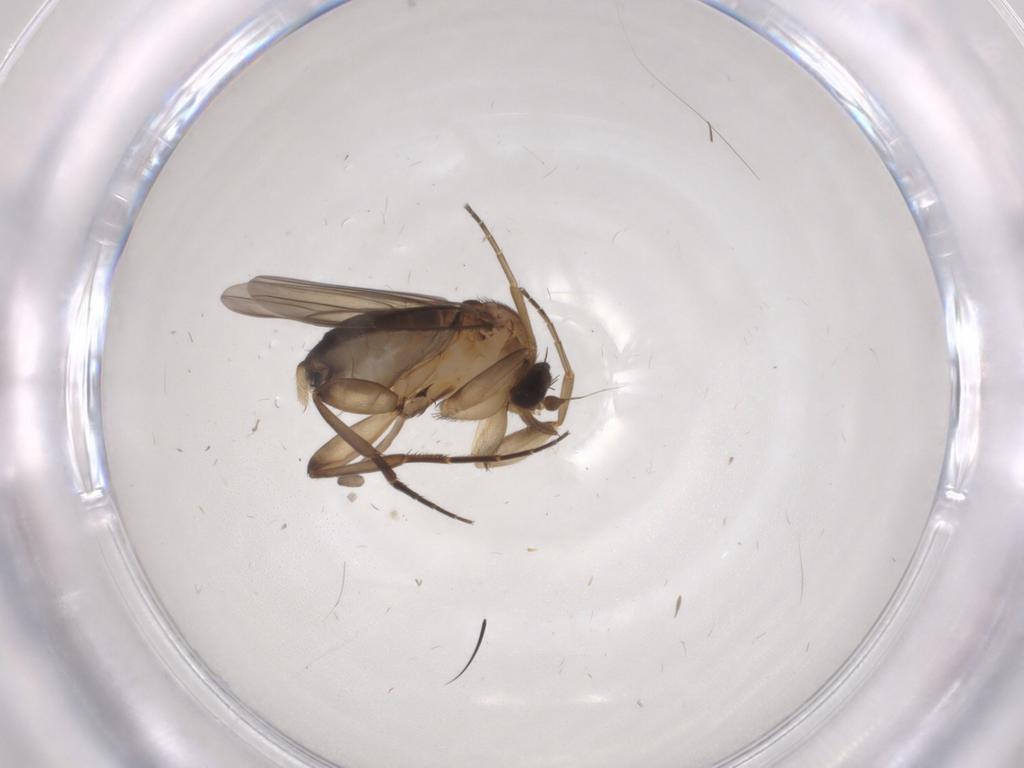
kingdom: Animalia
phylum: Arthropoda
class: Insecta
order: Diptera
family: Phoridae
